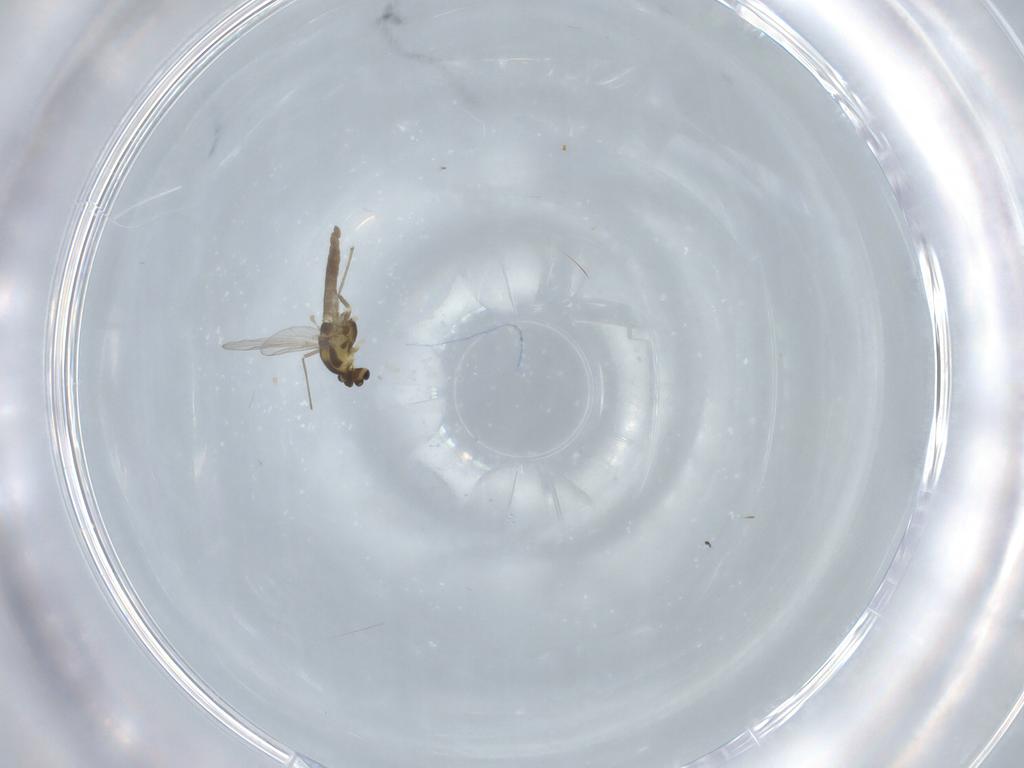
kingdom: Animalia
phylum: Arthropoda
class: Insecta
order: Diptera
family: Chironomidae
